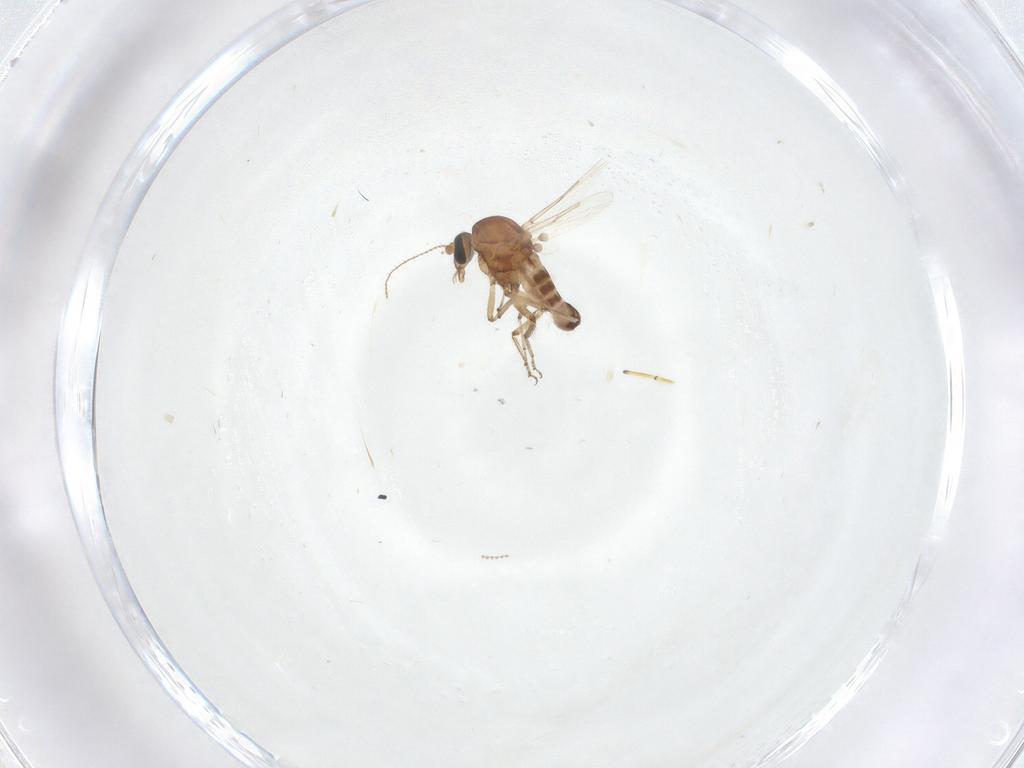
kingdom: Animalia
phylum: Arthropoda
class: Insecta
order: Diptera
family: Ceratopogonidae
